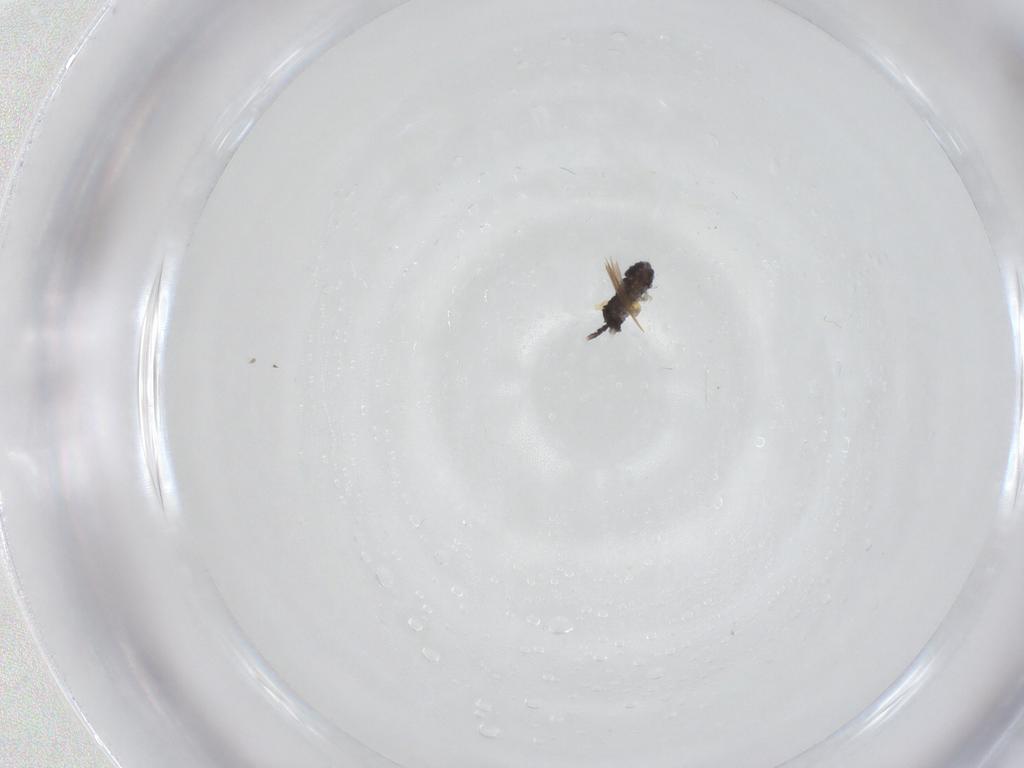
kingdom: Animalia
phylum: Arthropoda
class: Collembola
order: Poduromorpha
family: Neanuridae
